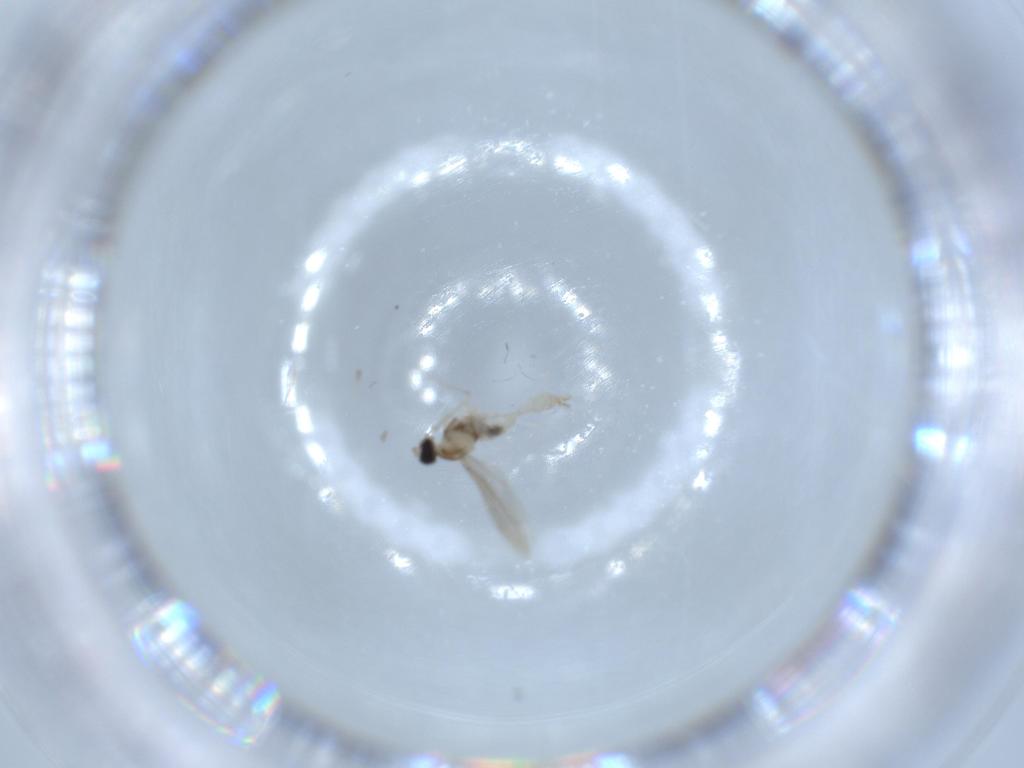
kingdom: Animalia
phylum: Arthropoda
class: Insecta
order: Diptera
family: Cecidomyiidae
